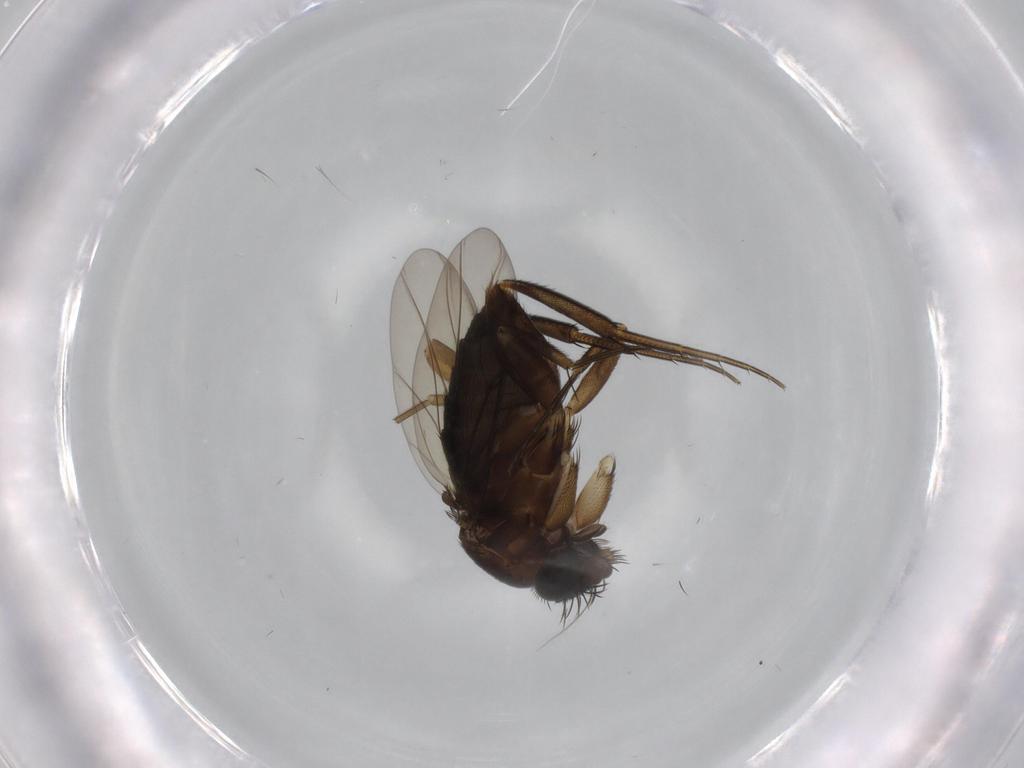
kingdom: Animalia
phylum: Arthropoda
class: Insecta
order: Diptera
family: Phoridae
